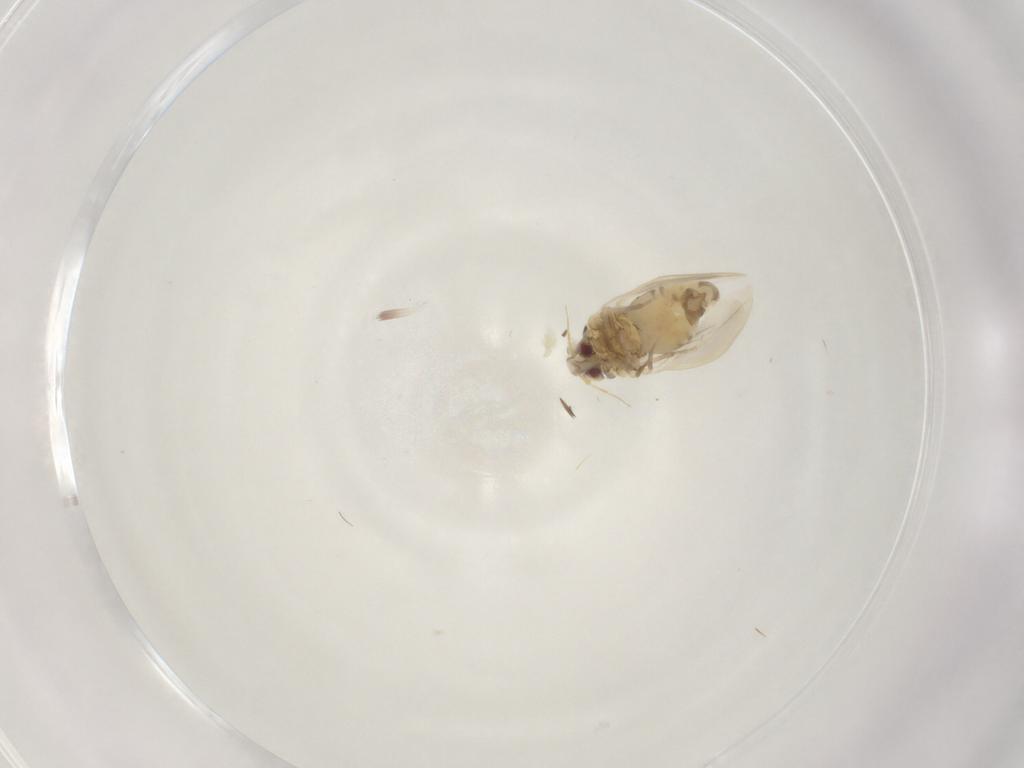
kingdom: Animalia
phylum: Arthropoda
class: Insecta
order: Hemiptera
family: Aleyrodidae
